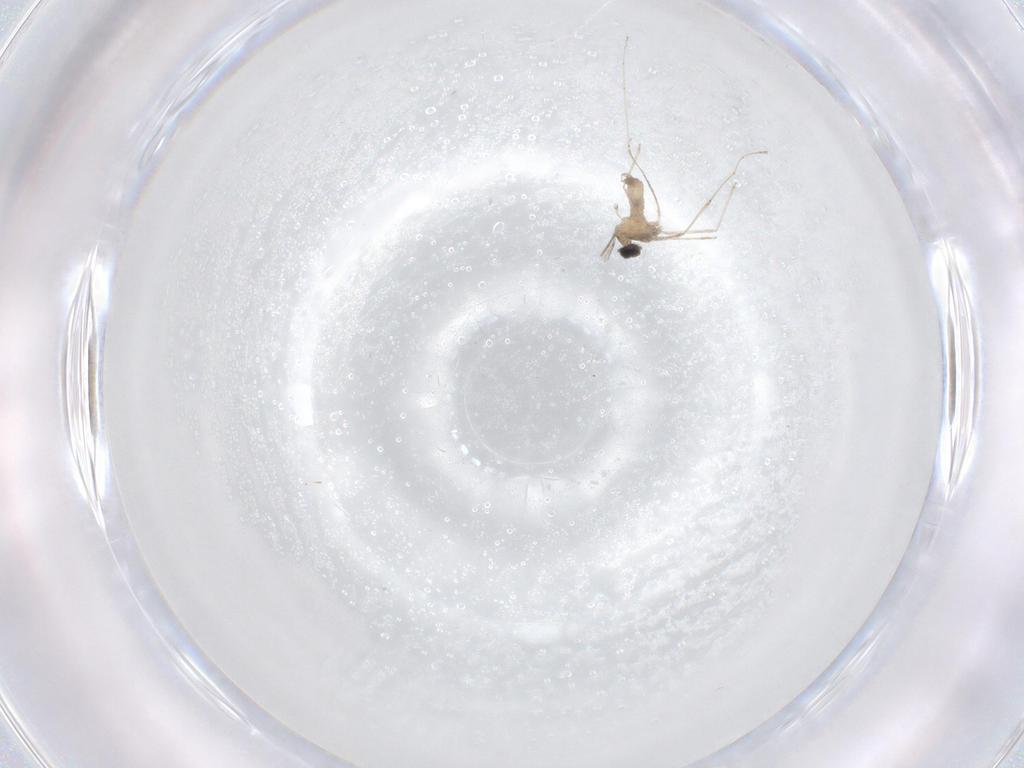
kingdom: Animalia
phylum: Arthropoda
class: Insecta
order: Diptera
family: Cecidomyiidae
